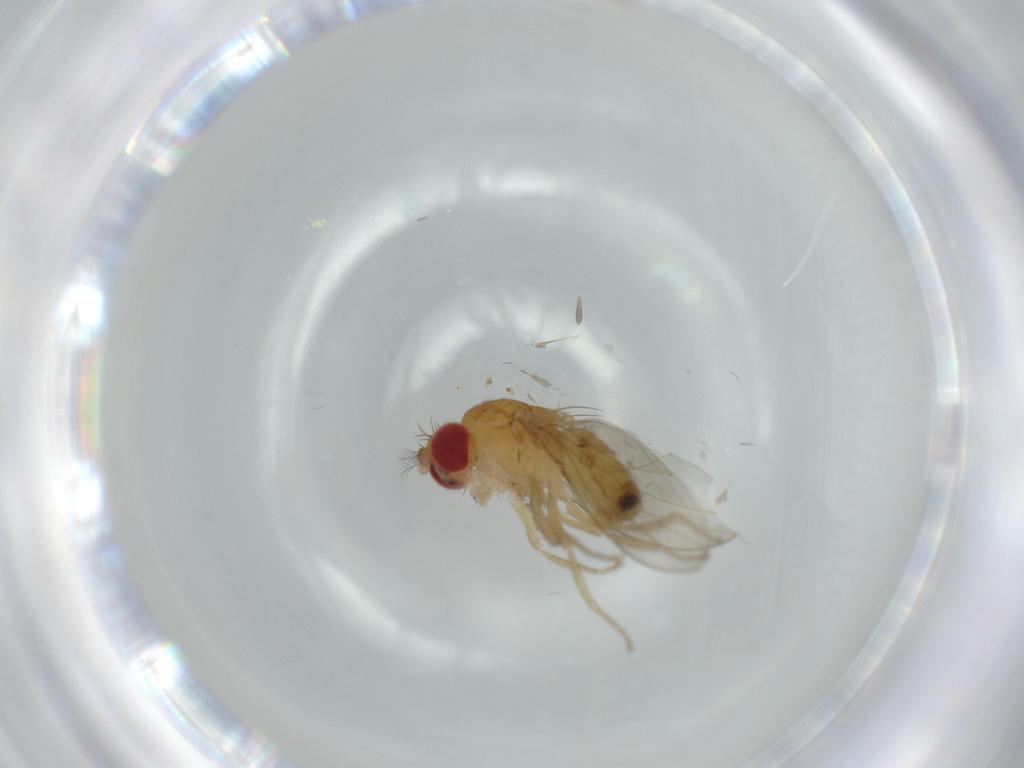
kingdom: Animalia
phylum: Arthropoda
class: Insecta
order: Diptera
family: Drosophilidae
